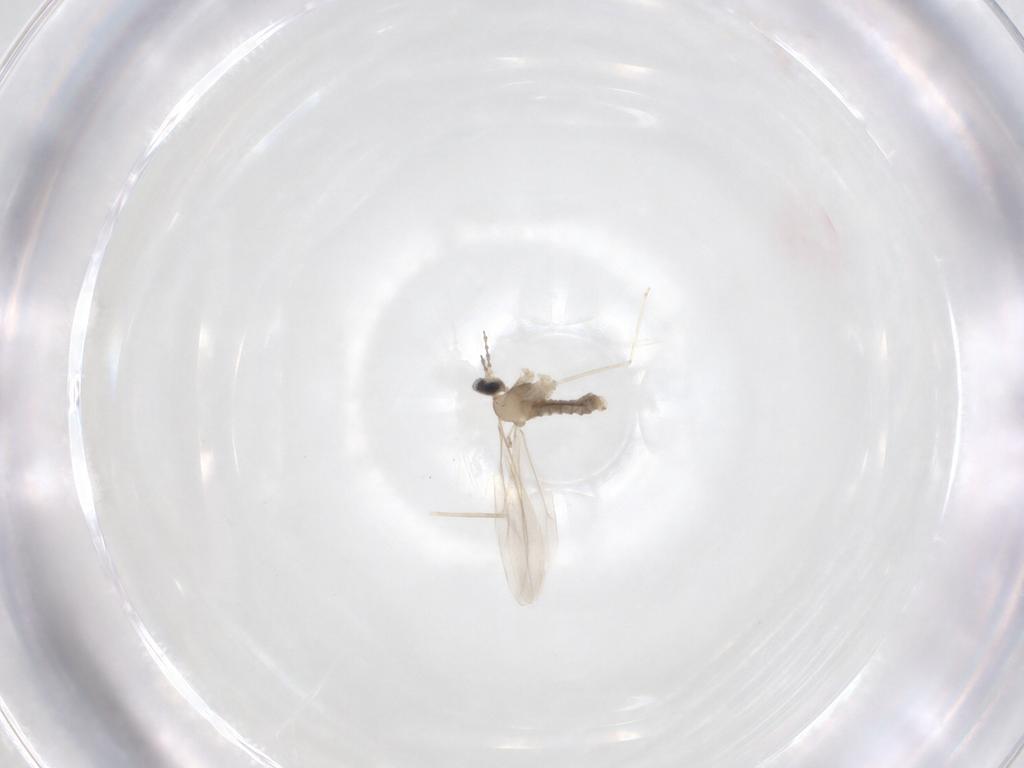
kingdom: Animalia
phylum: Arthropoda
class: Insecta
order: Diptera
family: Cecidomyiidae
